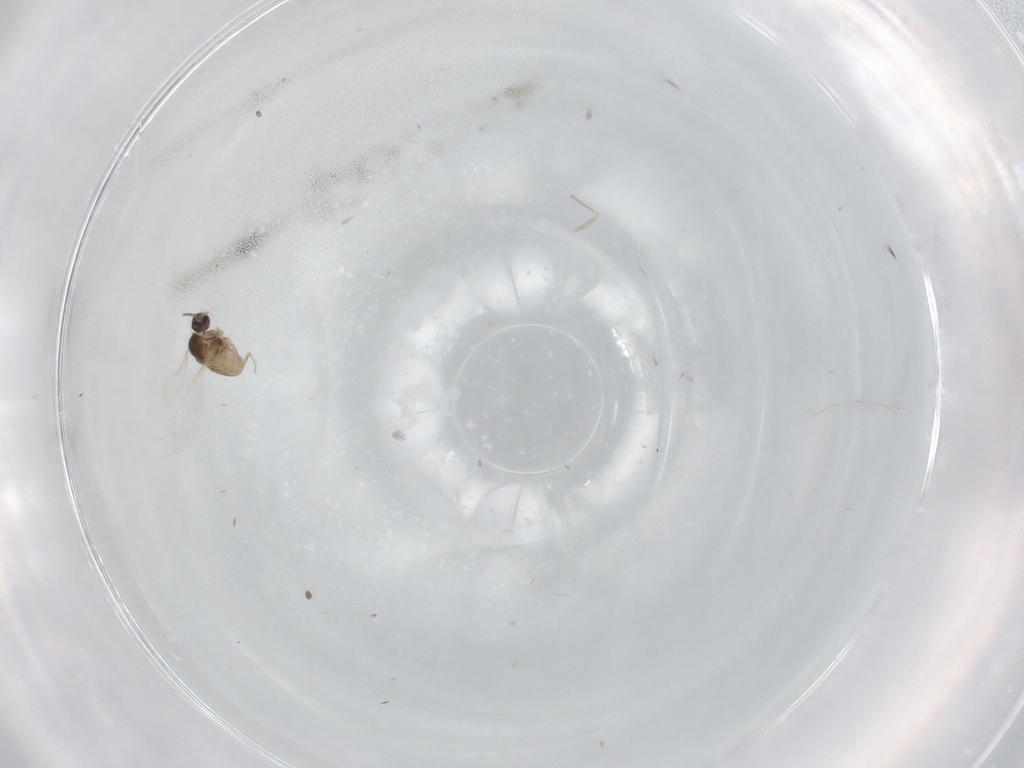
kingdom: Animalia
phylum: Arthropoda
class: Insecta
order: Diptera
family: Cecidomyiidae
